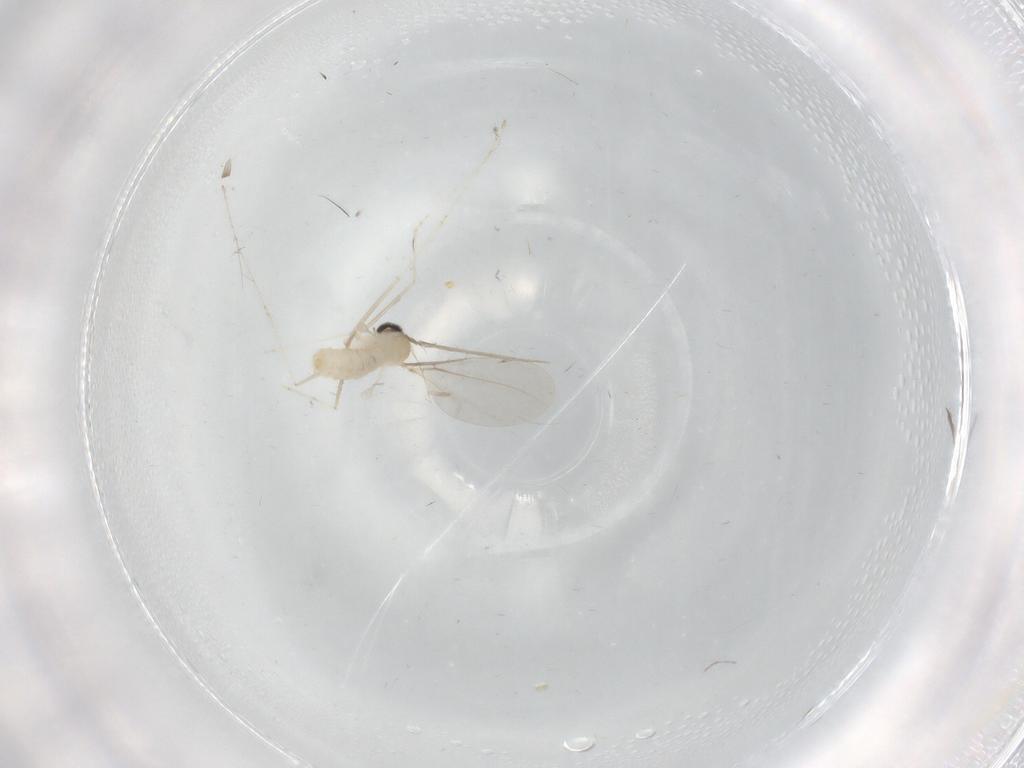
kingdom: Animalia
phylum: Arthropoda
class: Insecta
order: Diptera
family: Cecidomyiidae
